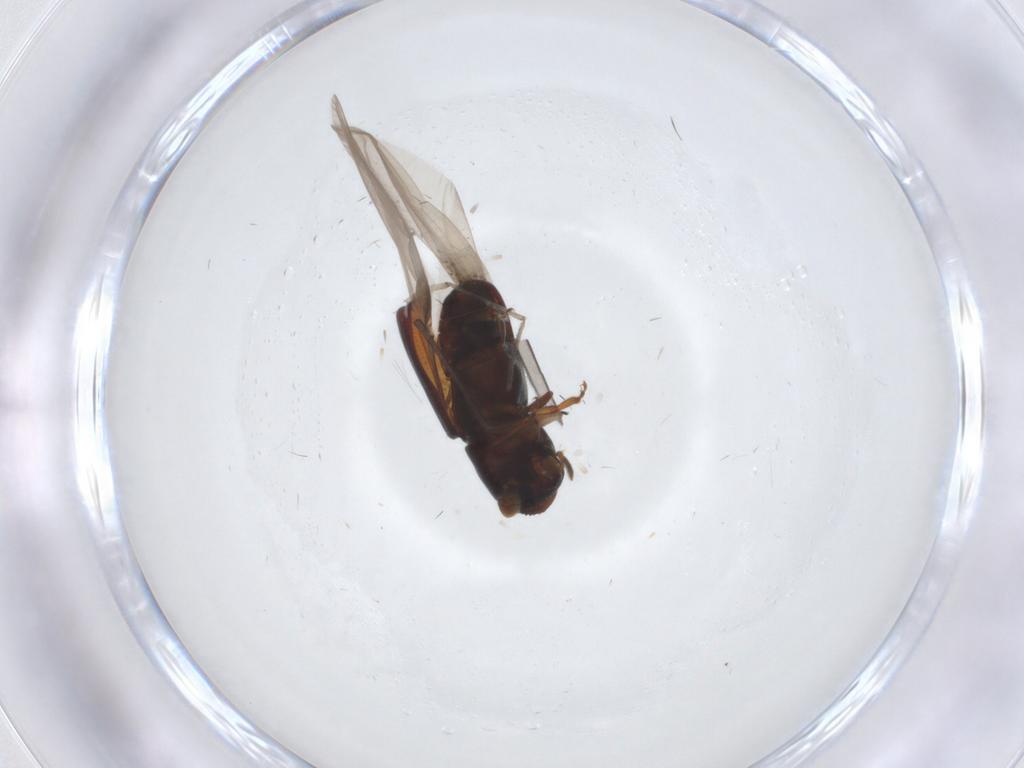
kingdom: Animalia
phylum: Arthropoda
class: Insecta
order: Coleoptera
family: Curculionidae
